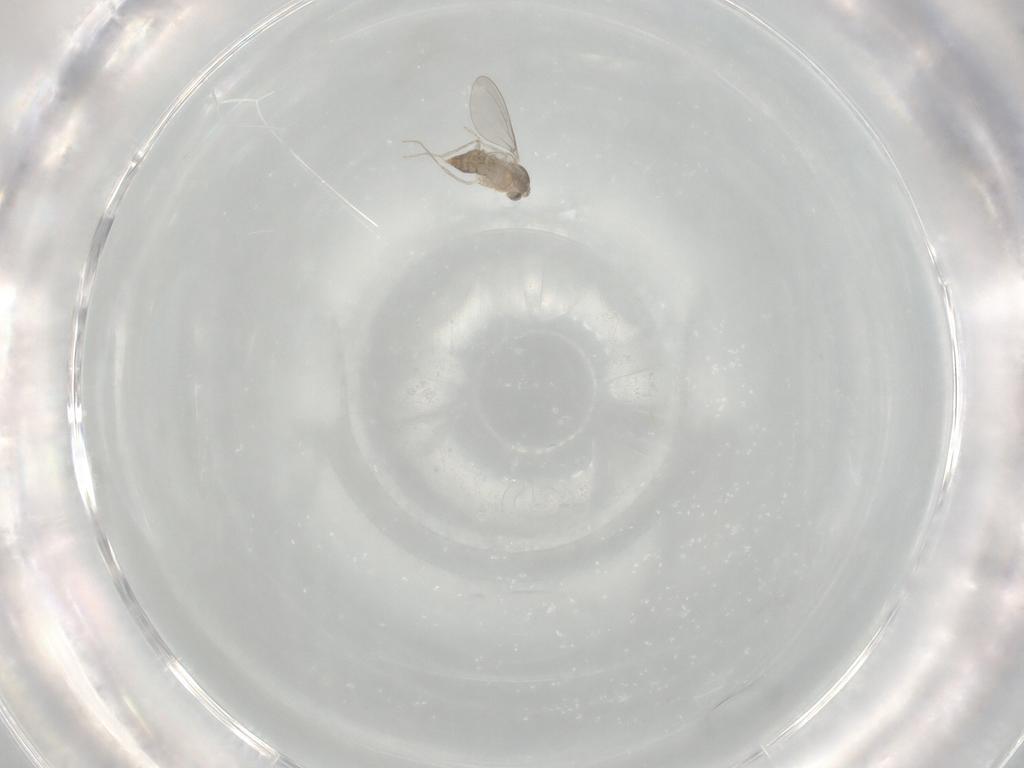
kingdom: Animalia
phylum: Arthropoda
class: Insecta
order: Diptera
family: Cecidomyiidae
